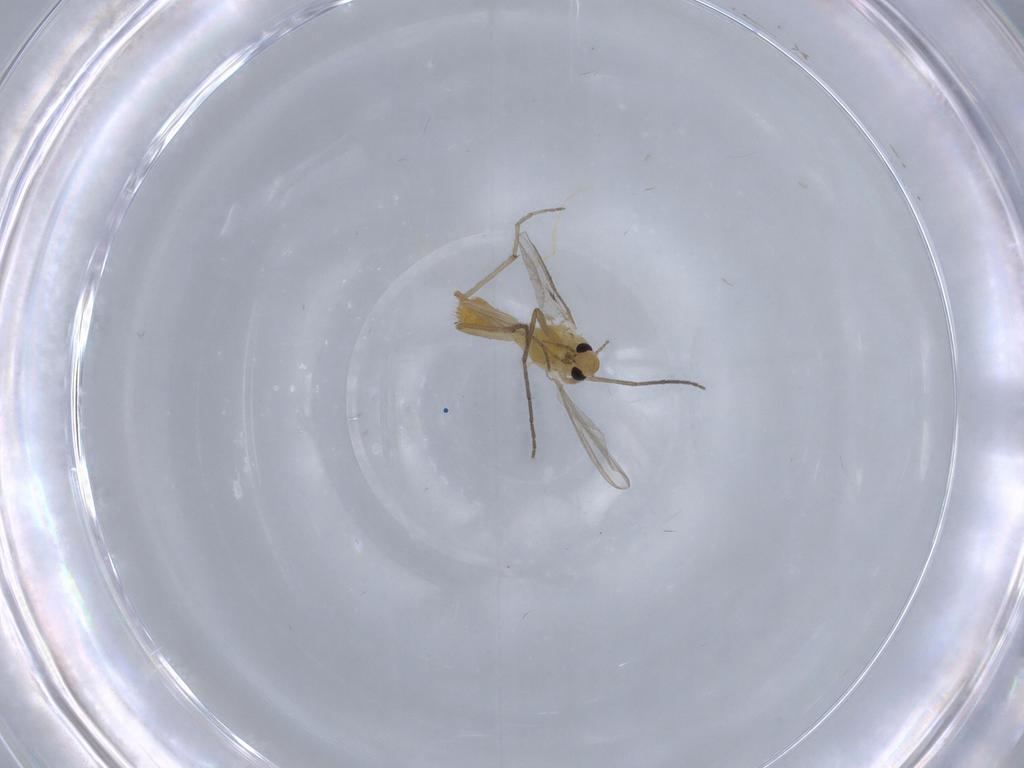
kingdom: Animalia
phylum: Arthropoda
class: Insecta
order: Diptera
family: Chironomidae
